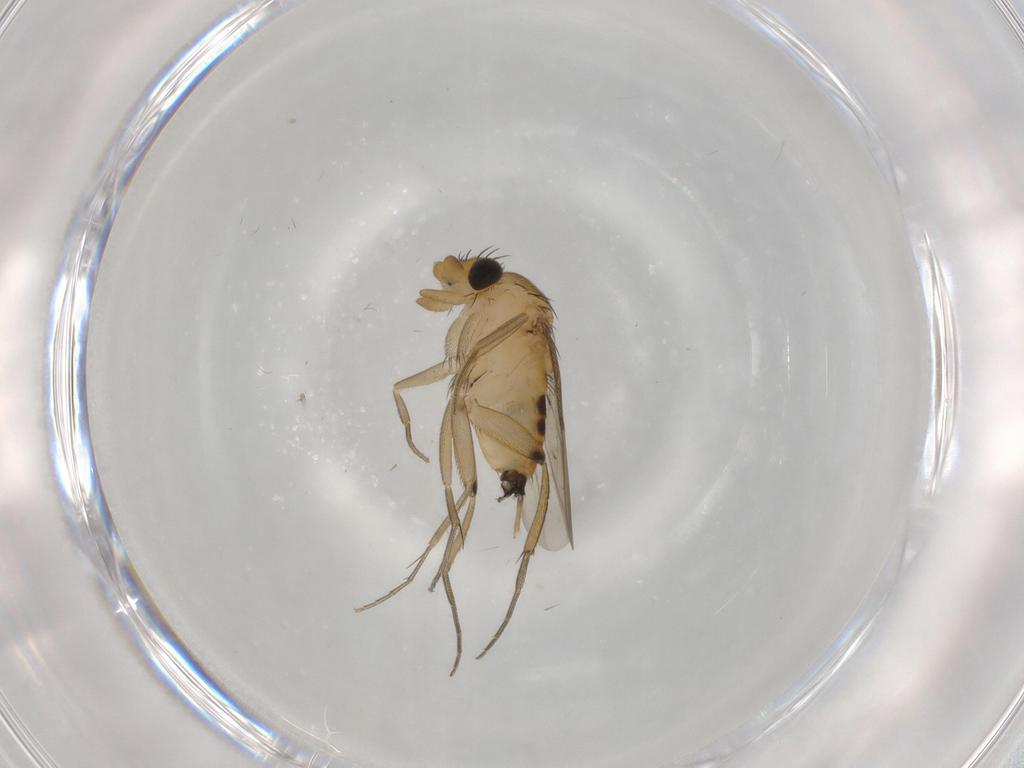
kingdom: Animalia
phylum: Arthropoda
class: Insecta
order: Diptera
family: Phoridae
